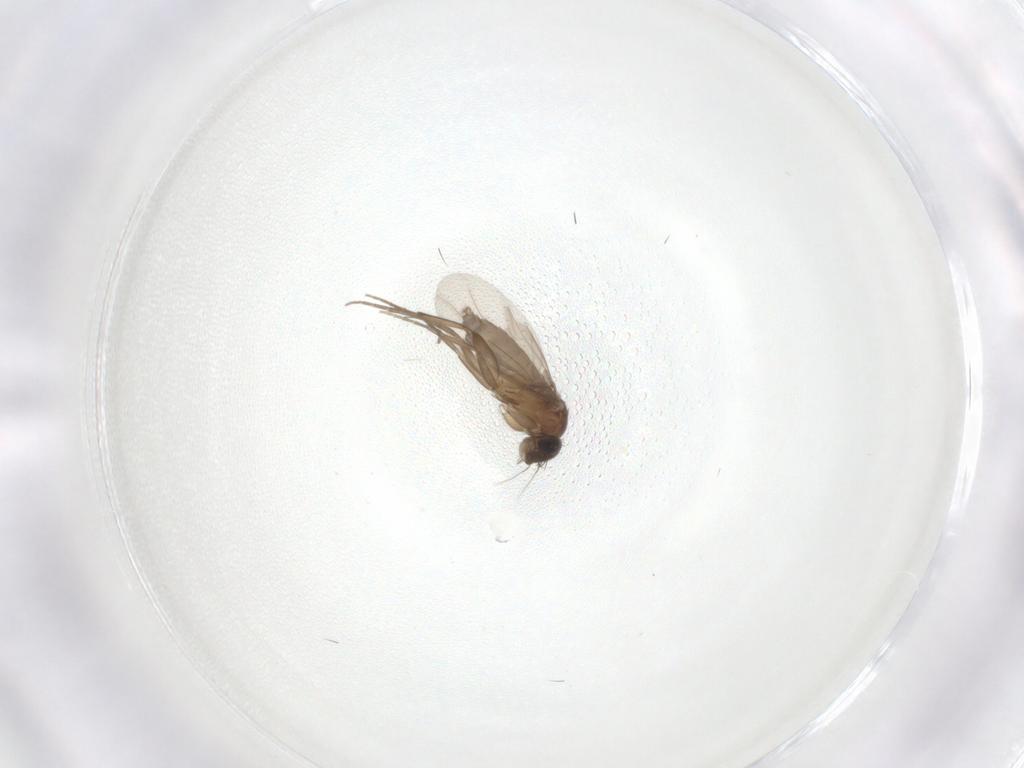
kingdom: Animalia
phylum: Arthropoda
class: Insecta
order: Diptera
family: Phoridae
